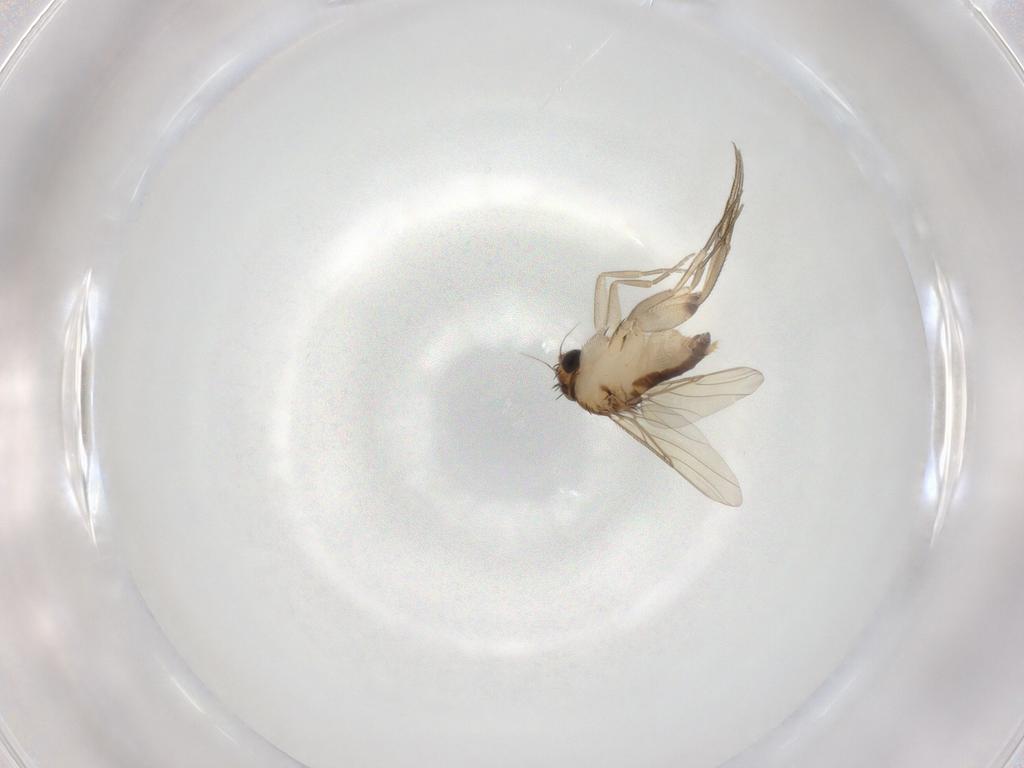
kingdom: Animalia
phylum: Arthropoda
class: Insecta
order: Diptera
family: Phoridae
